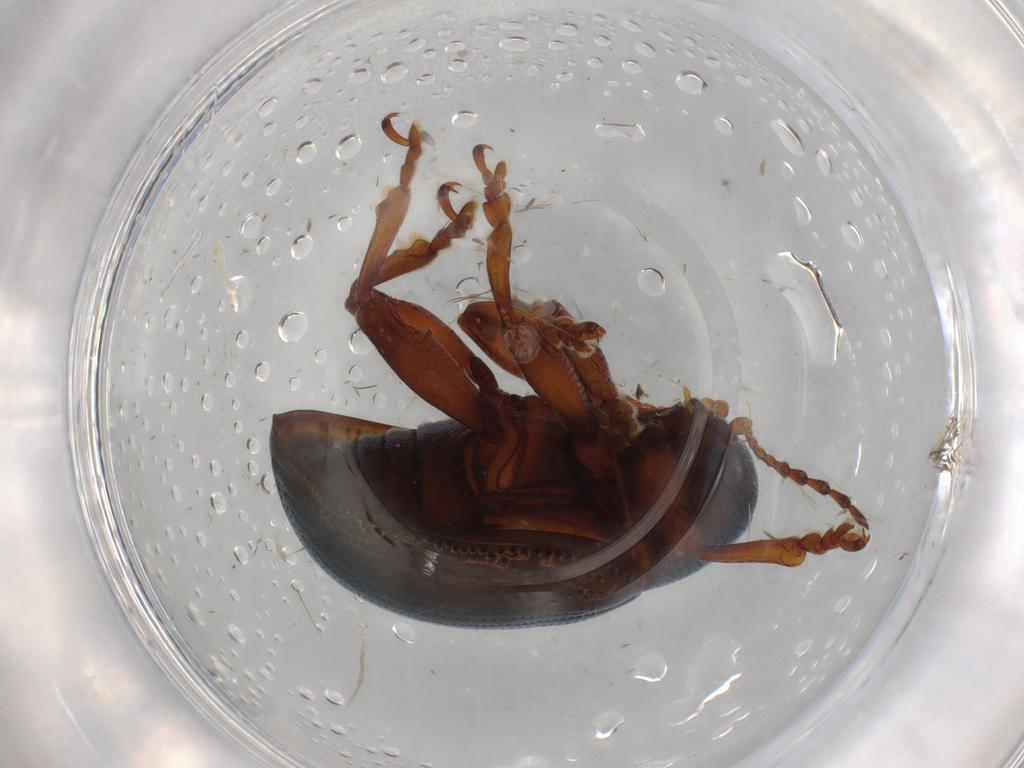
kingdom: Animalia
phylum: Arthropoda
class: Insecta
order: Coleoptera
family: Chrysomelidae
